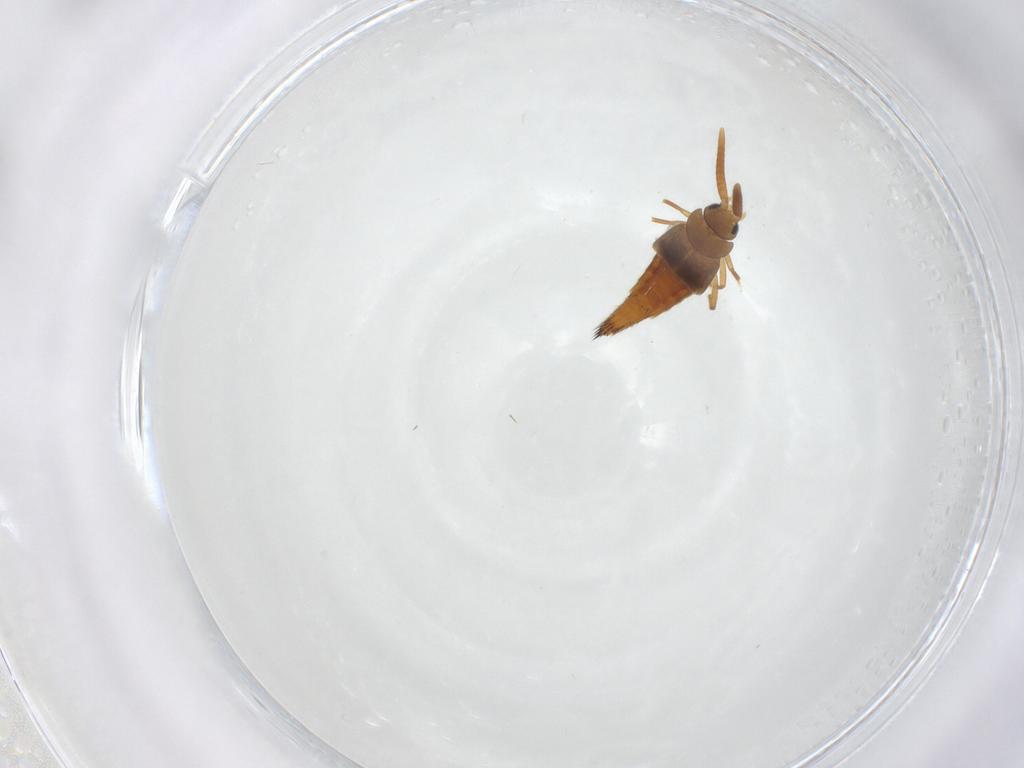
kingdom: Animalia
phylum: Arthropoda
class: Insecta
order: Coleoptera
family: Staphylinidae
